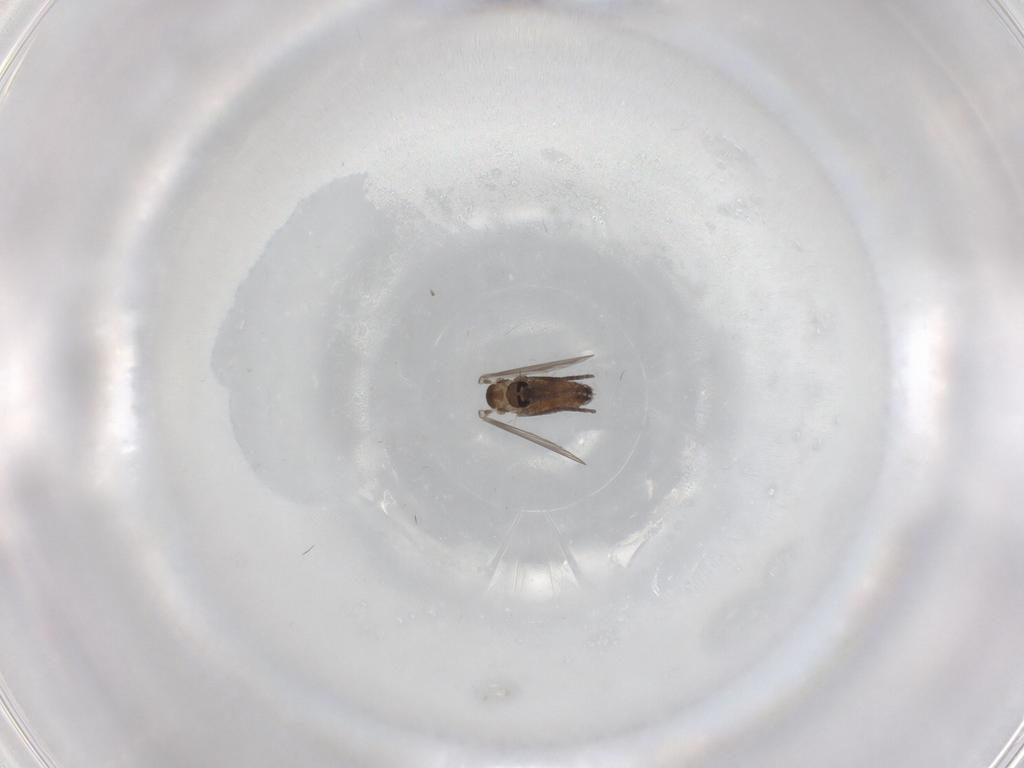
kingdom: Animalia
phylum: Arthropoda
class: Insecta
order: Diptera
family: Psychodidae
